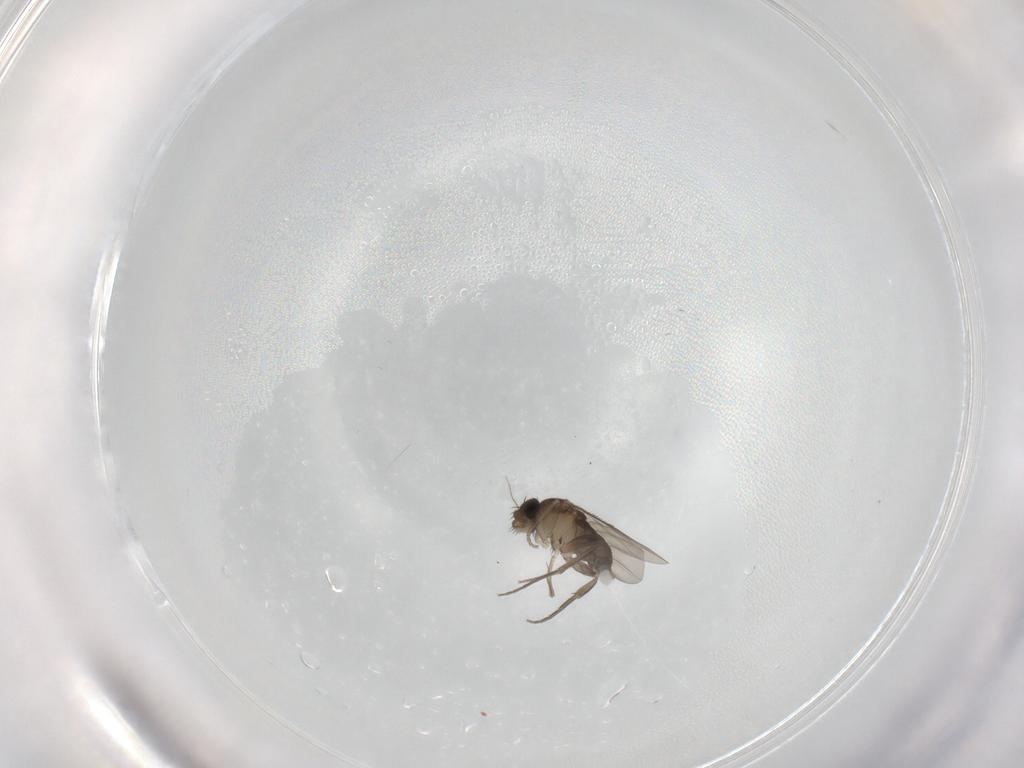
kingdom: Animalia
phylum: Arthropoda
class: Insecta
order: Diptera
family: Phoridae
